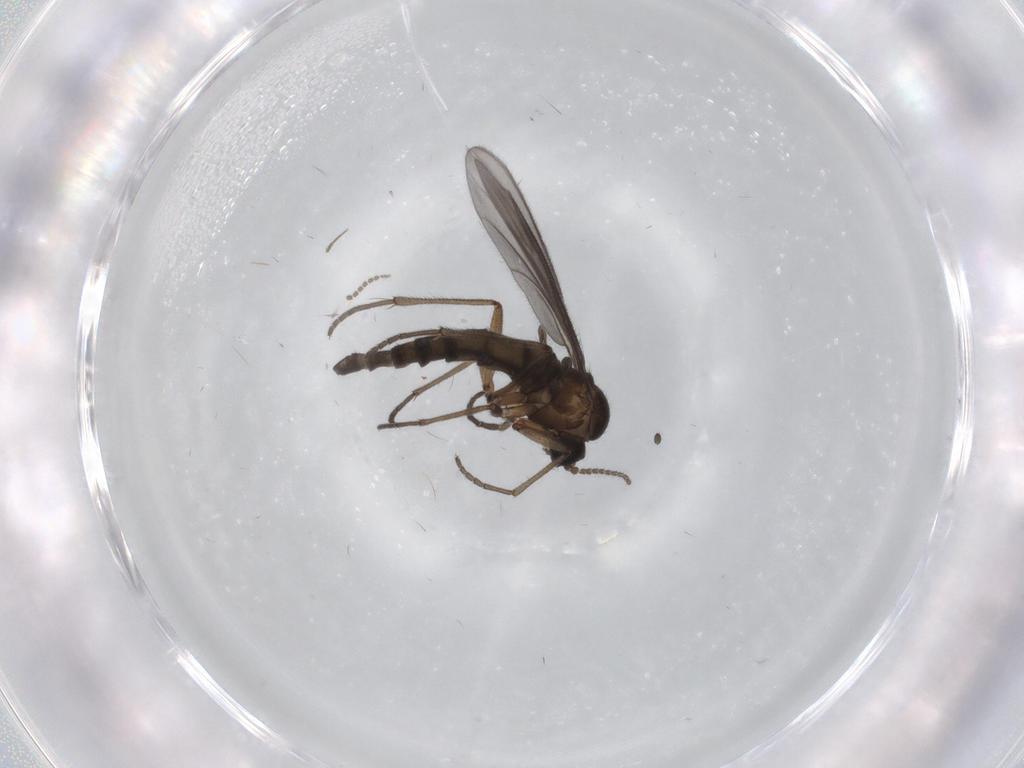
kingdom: Animalia
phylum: Arthropoda
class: Insecta
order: Diptera
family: Sciaridae
